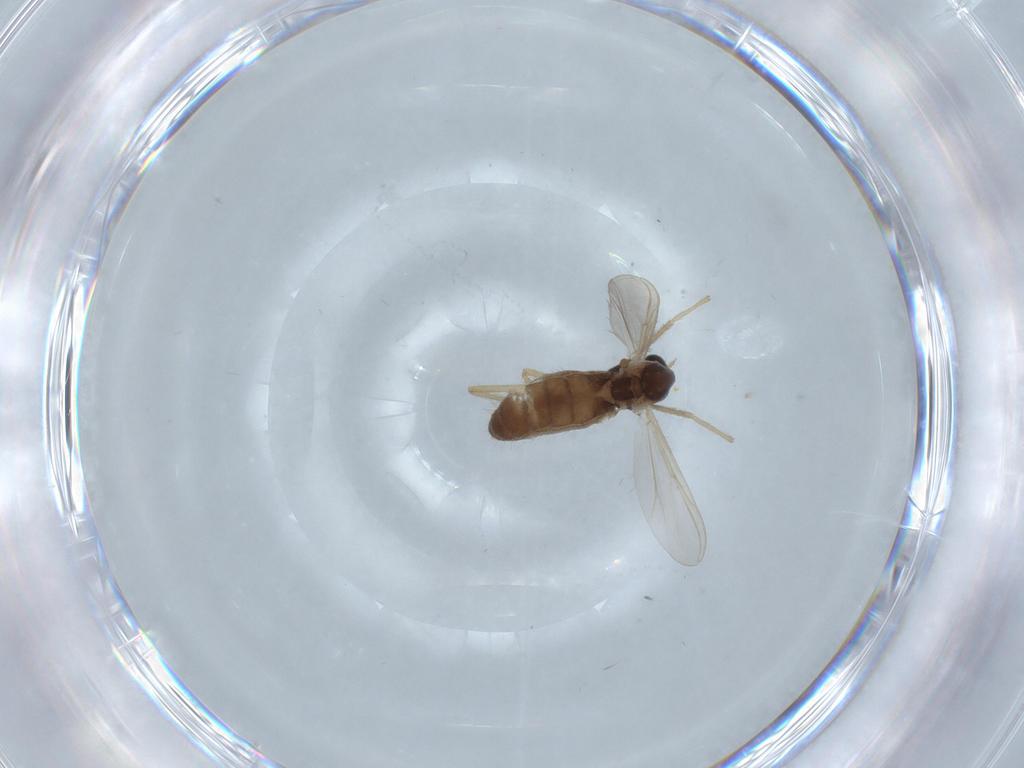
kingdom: Animalia
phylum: Arthropoda
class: Insecta
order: Diptera
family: Chironomidae
